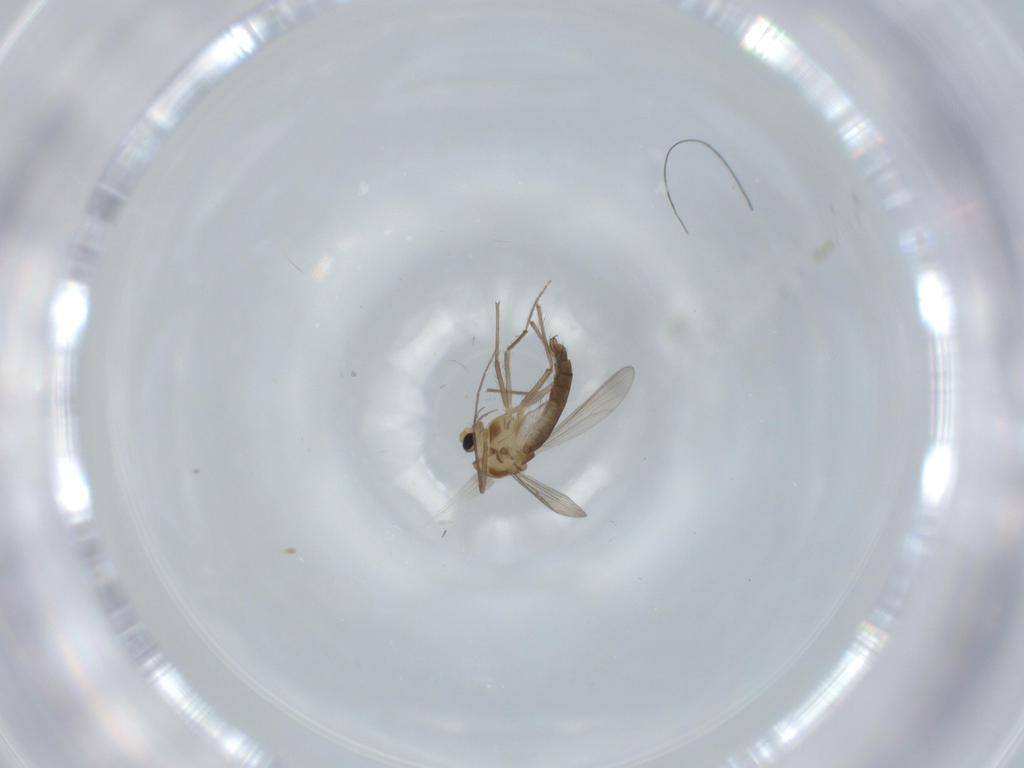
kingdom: Animalia
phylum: Arthropoda
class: Insecta
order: Diptera
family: Chironomidae
